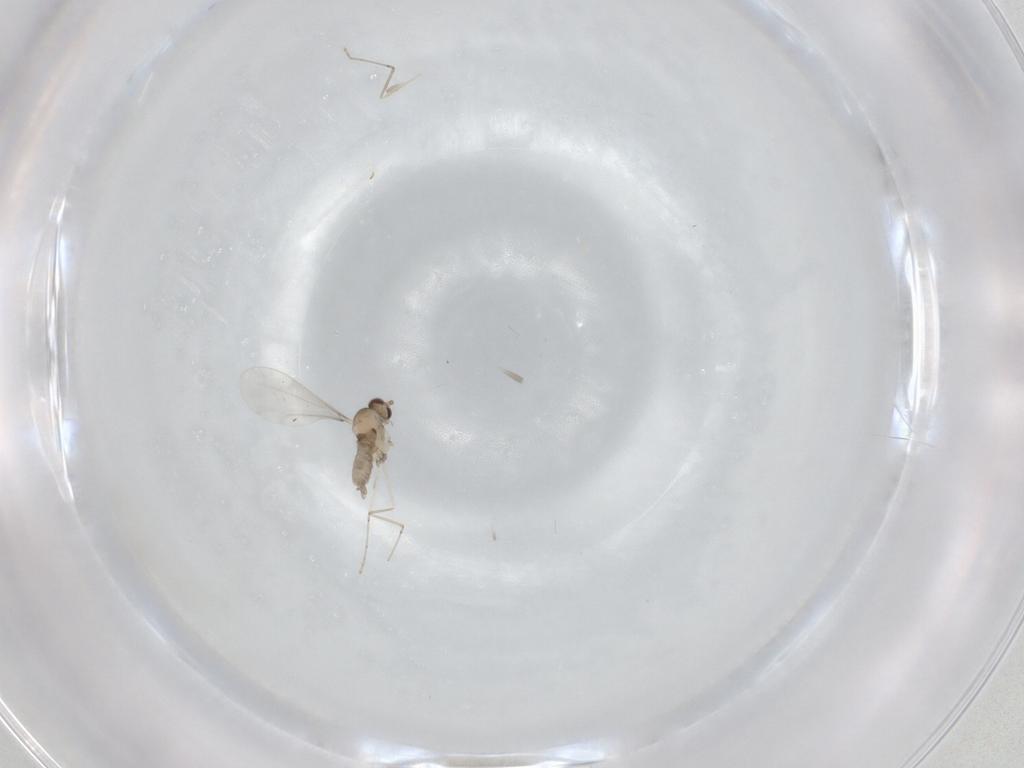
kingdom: Animalia
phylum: Arthropoda
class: Insecta
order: Diptera
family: Cecidomyiidae
